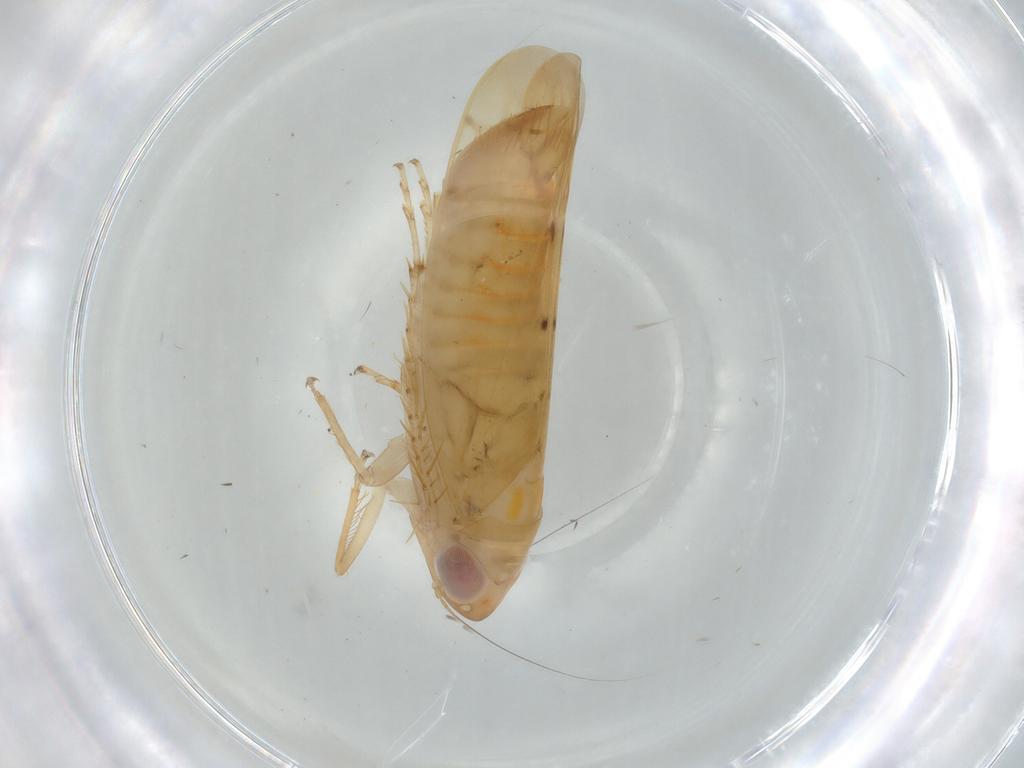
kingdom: Animalia
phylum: Arthropoda
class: Insecta
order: Hemiptera
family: Cicadellidae
